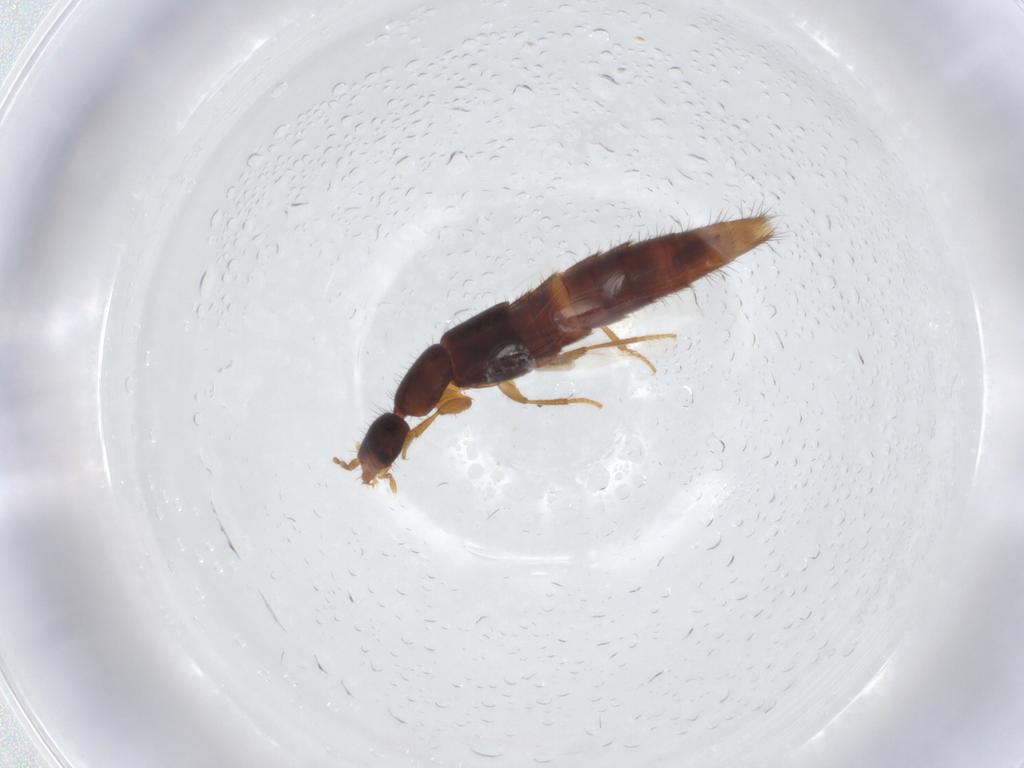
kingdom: Animalia
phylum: Arthropoda
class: Insecta
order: Coleoptera
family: Staphylinidae
